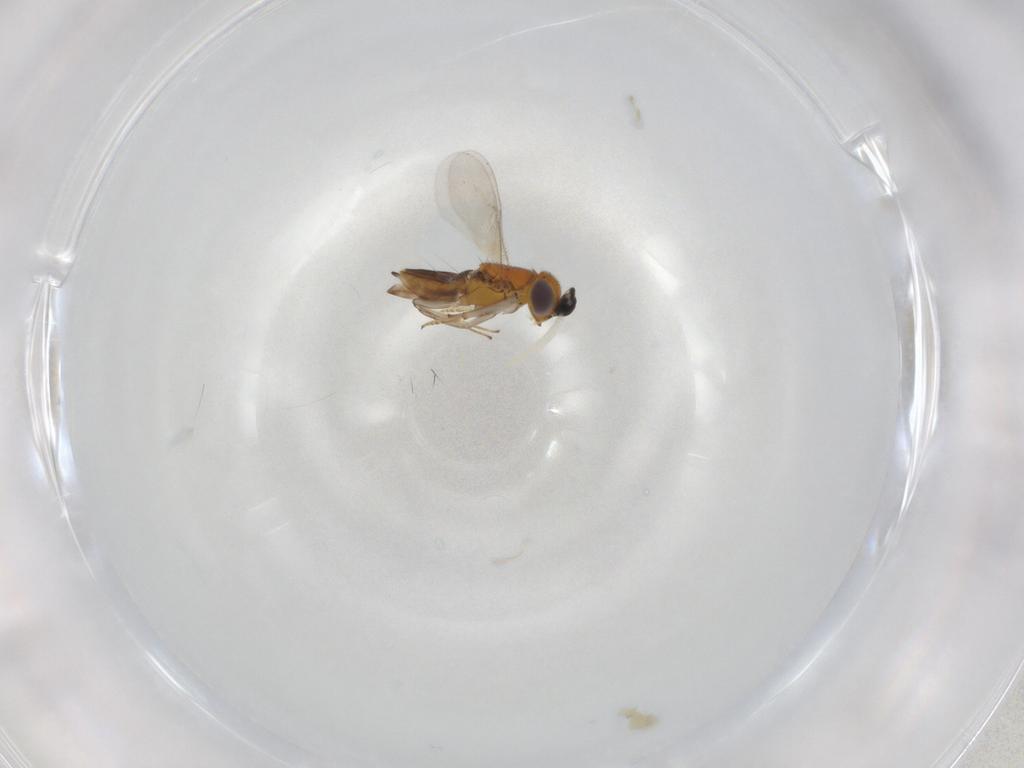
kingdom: Animalia
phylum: Arthropoda
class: Insecta
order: Hymenoptera
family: Encyrtidae
